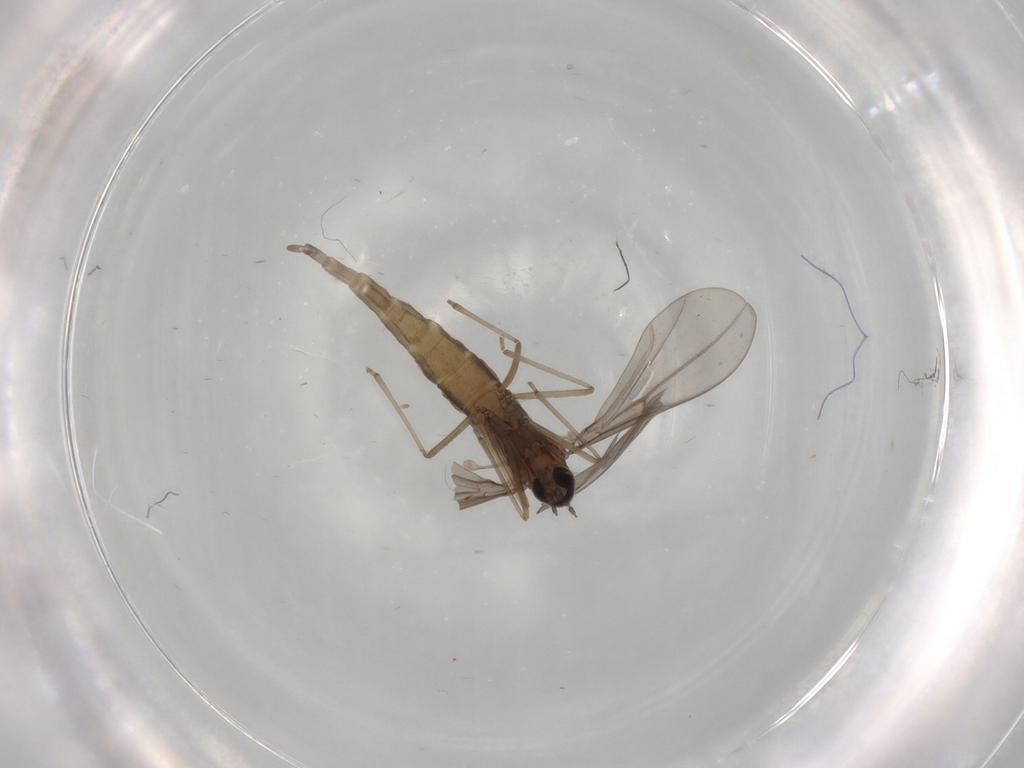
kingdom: Animalia
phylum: Arthropoda
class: Insecta
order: Diptera
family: Cecidomyiidae
